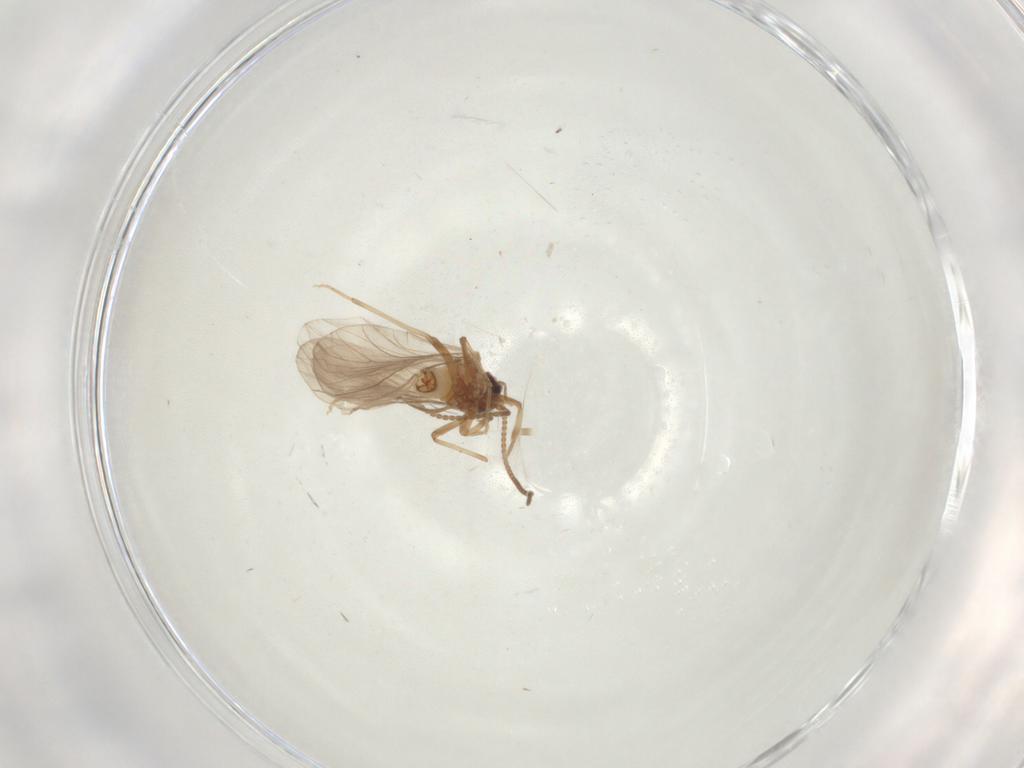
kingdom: Animalia
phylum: Arthropoda
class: Insecta
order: Neuroptera
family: Coniopterygidae
